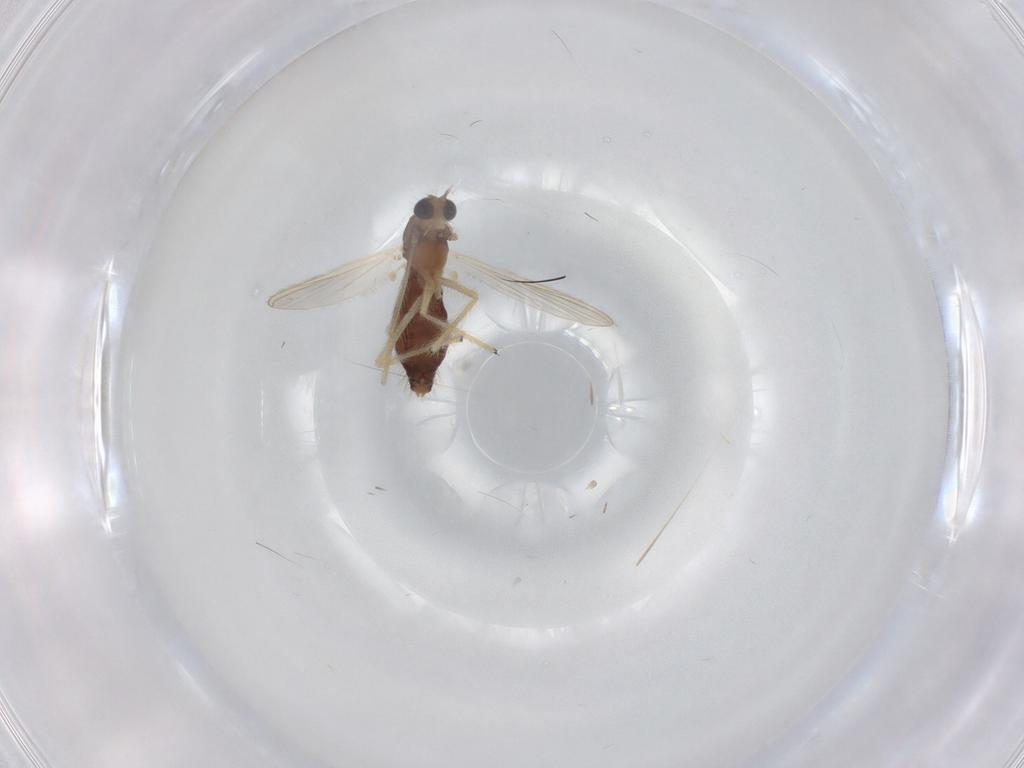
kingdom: Animalia
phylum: Arthropoda
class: Insecta
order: Diptera
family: Chironomidae
